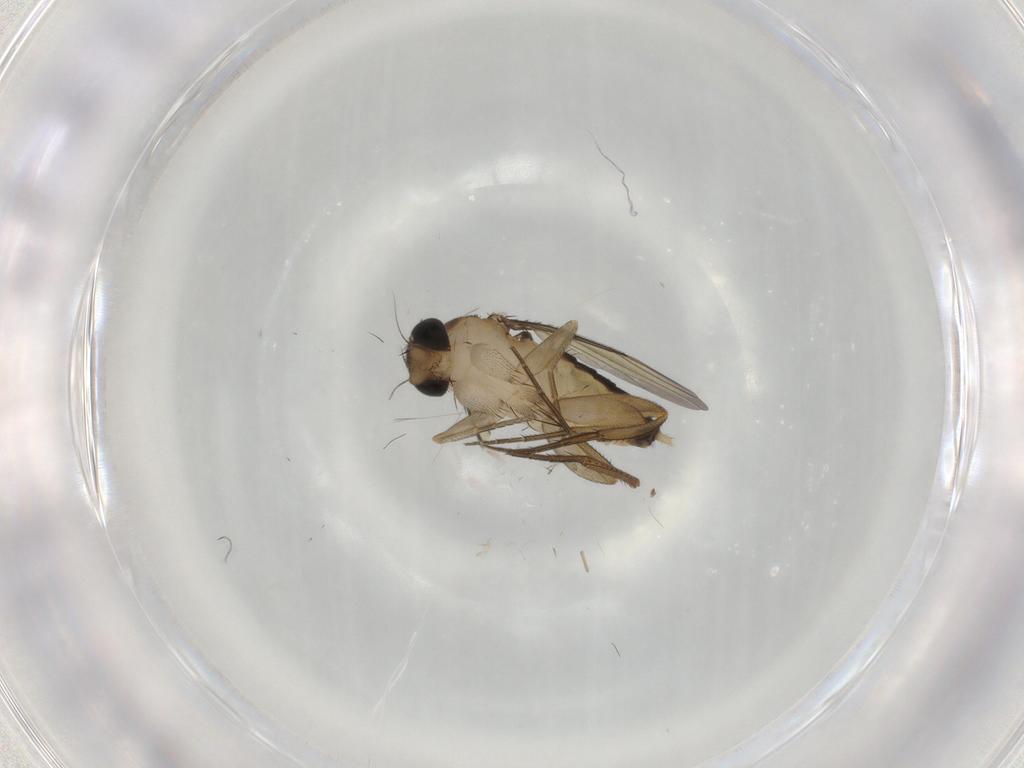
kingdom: Animalia
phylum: Arthropoda
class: Insecta
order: Diptera
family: Sciaridae
